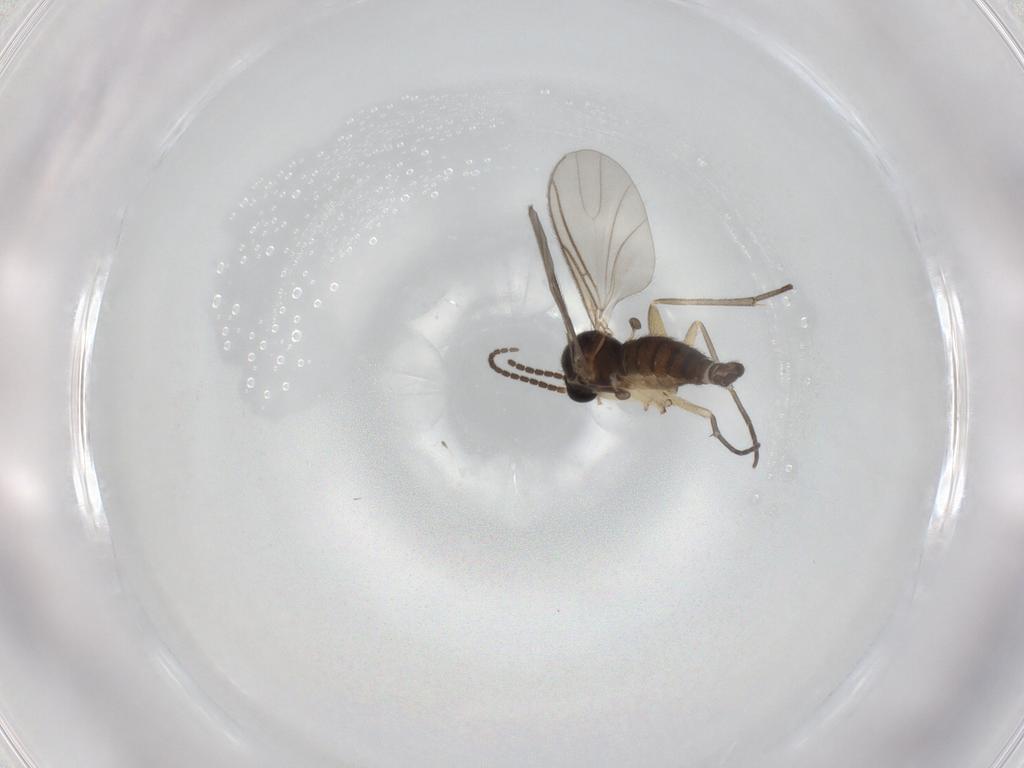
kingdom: Animalia
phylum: Arthropoda
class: Insecta
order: Diptera
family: Sciaridae
